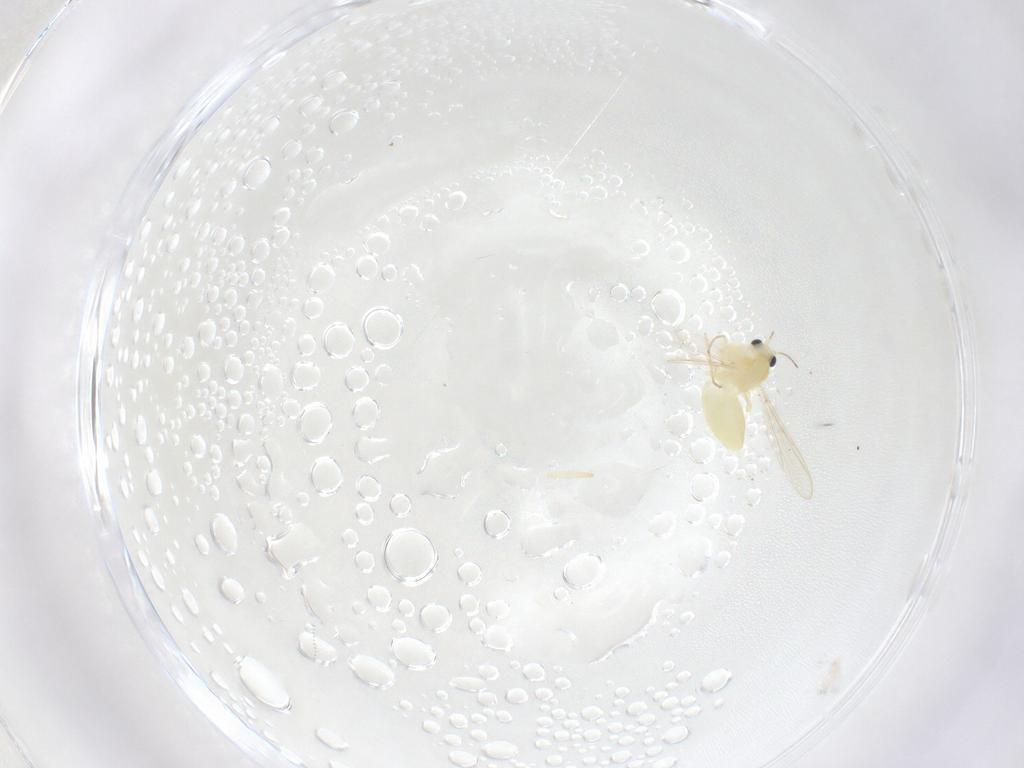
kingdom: Animalia
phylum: Arthropoda
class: Insecta
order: Diptera
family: Chironomidae
